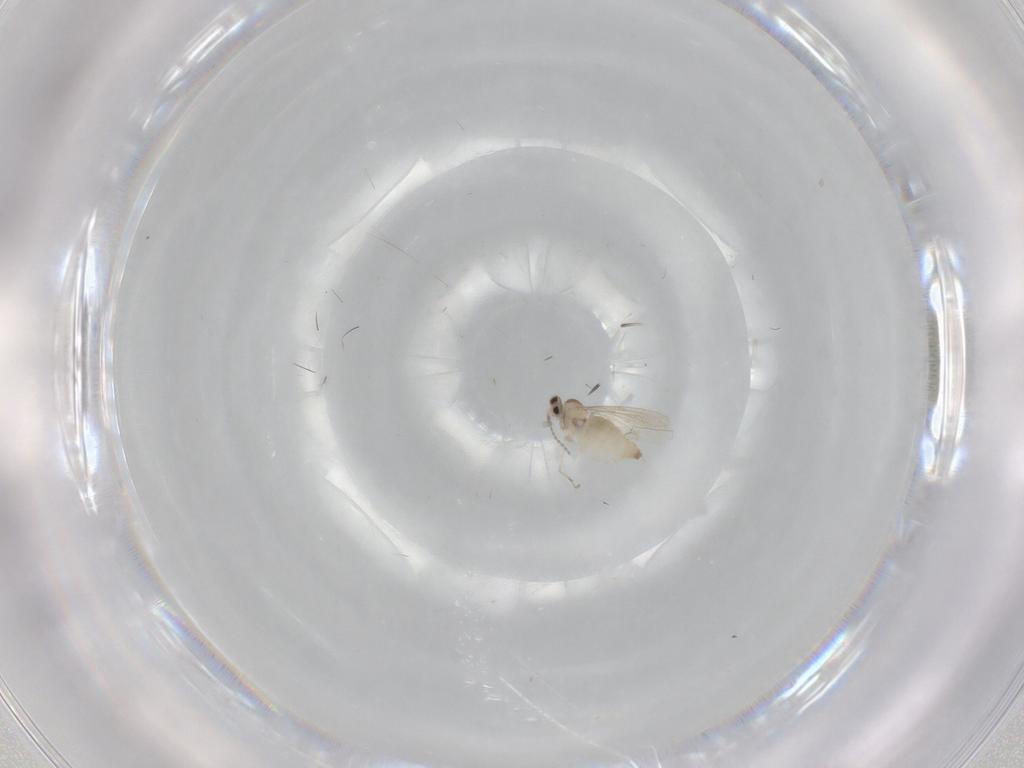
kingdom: Animalia
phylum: Arthropoda
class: Insecta
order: Diptera
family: Cecidomyiidae
